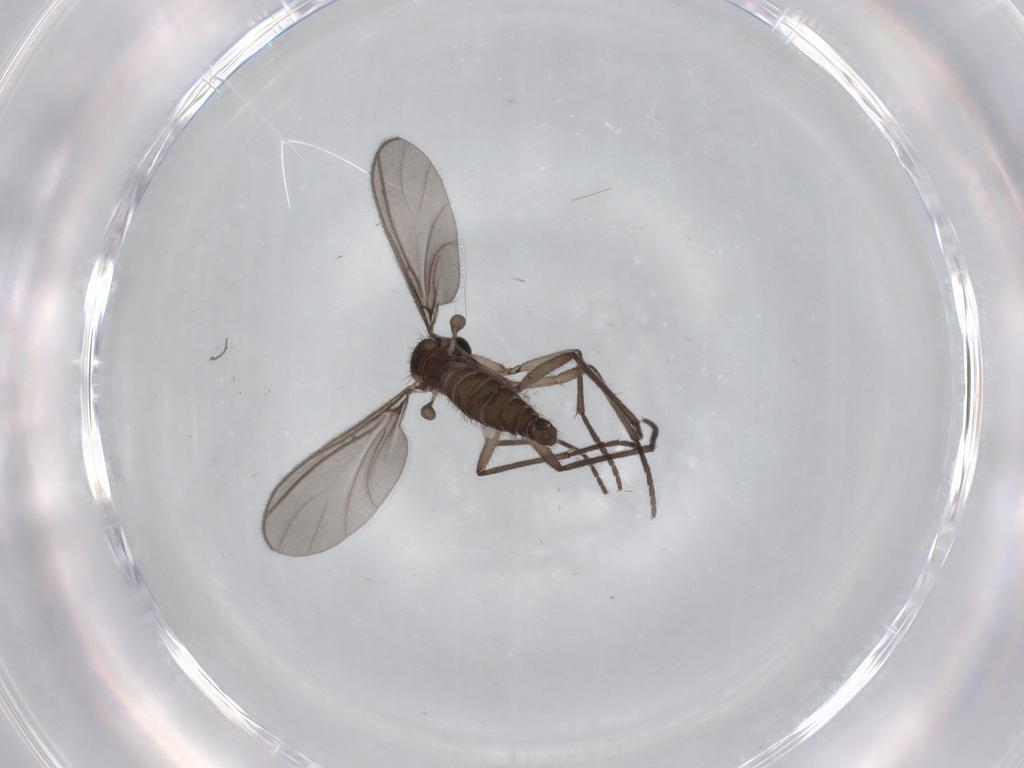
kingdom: Animalia
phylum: Arthropoda
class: Insecta
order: Diptera
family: Sciaridae
